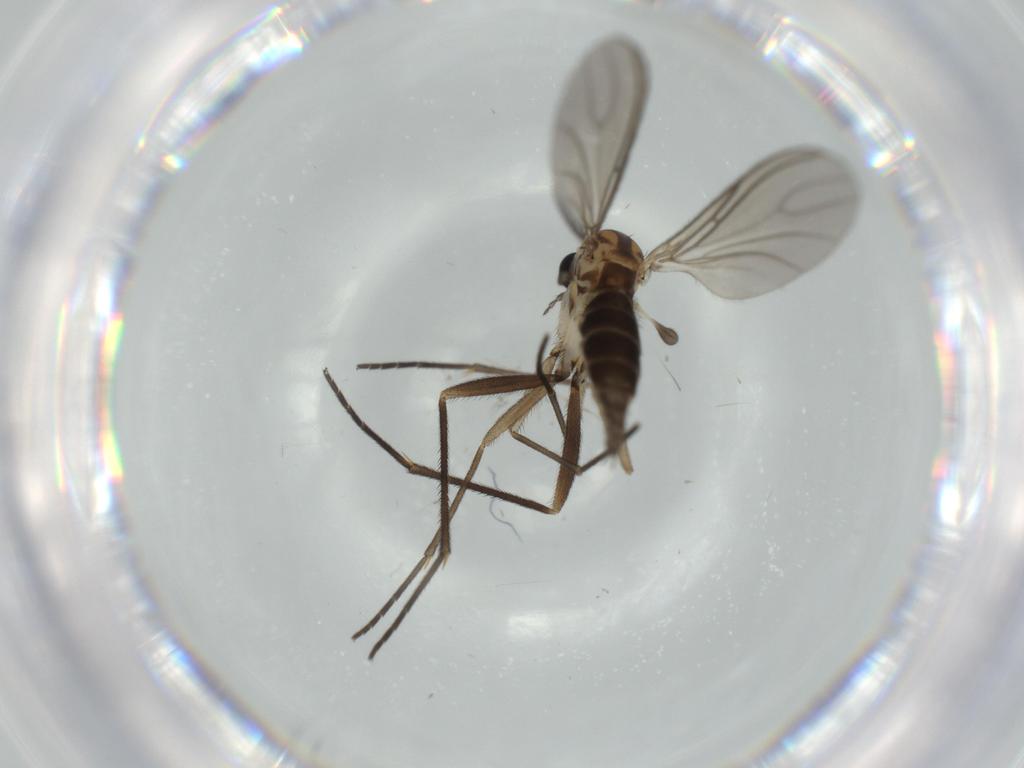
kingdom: Animalia
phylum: Arthropoda
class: Insecta
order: Diptera
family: Sciaridae
